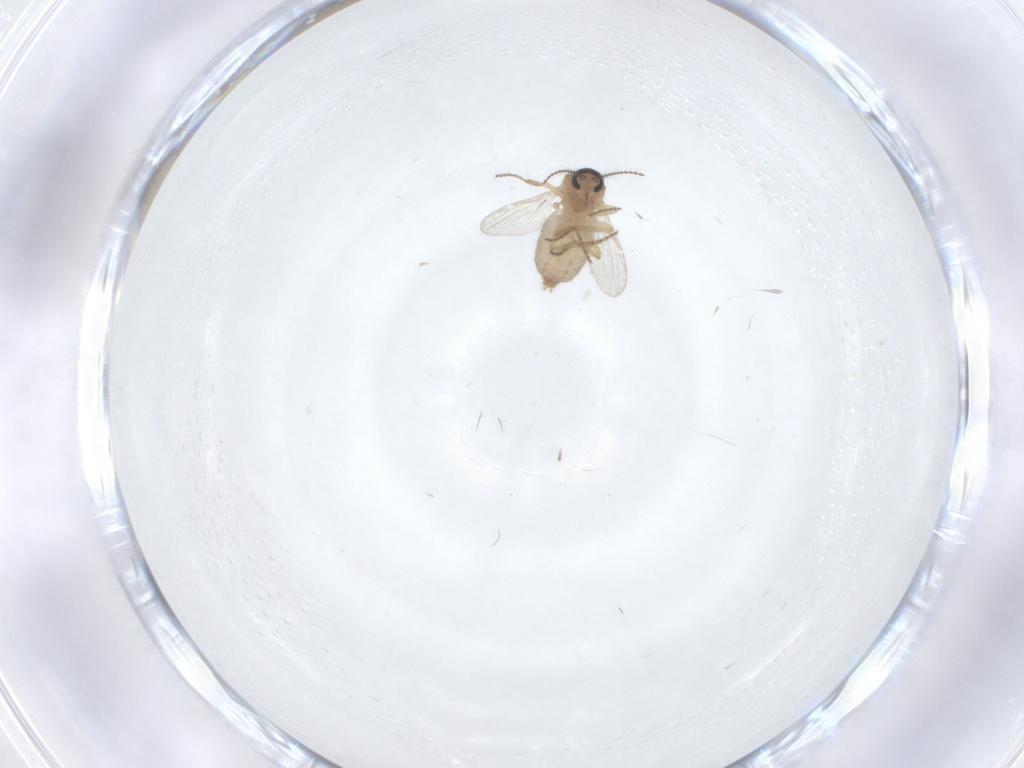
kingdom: Animalia
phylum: Arthropoda
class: Insecta
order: Diptera
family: Ceratopogonidae
